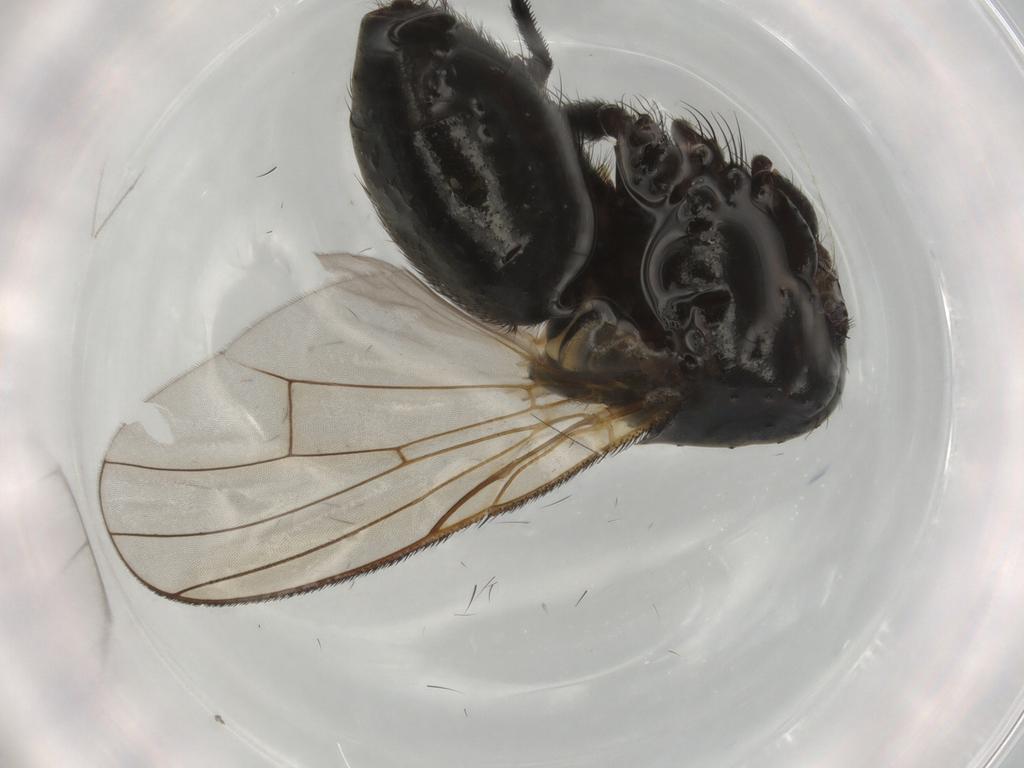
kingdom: Animalia
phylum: Arthropoda
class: Insecta
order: Diptera
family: Muscidae
